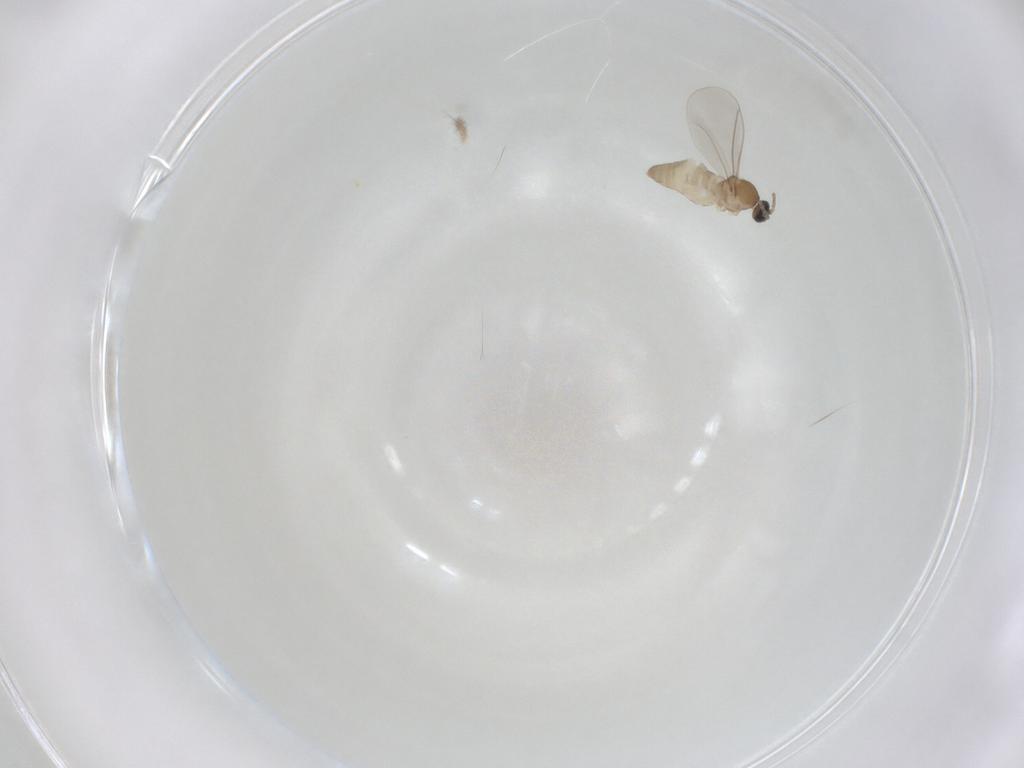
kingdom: Animalia
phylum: Arthropoda
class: Insecta
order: Diptera
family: Cecidomyiidae
